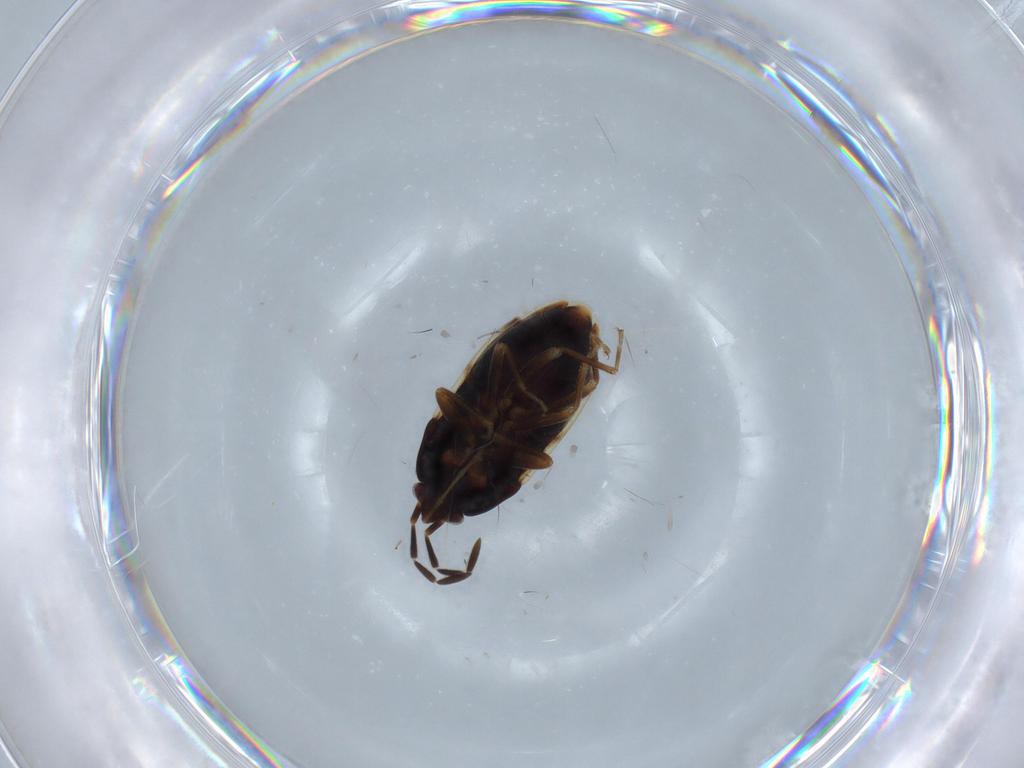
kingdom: Animalia
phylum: Arthropoda
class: Insecta
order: Hemiptera
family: Rhyparochromidae
